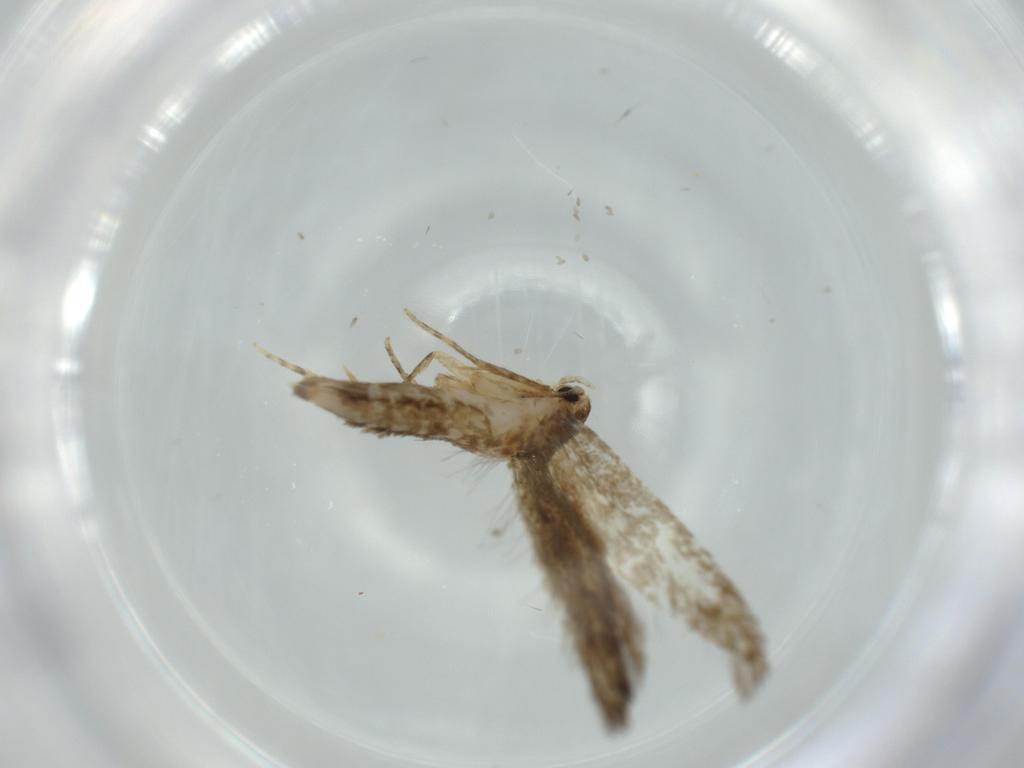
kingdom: Animalia
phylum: Arthropoda
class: Insecta
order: Lepidoptera
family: Tineidae
